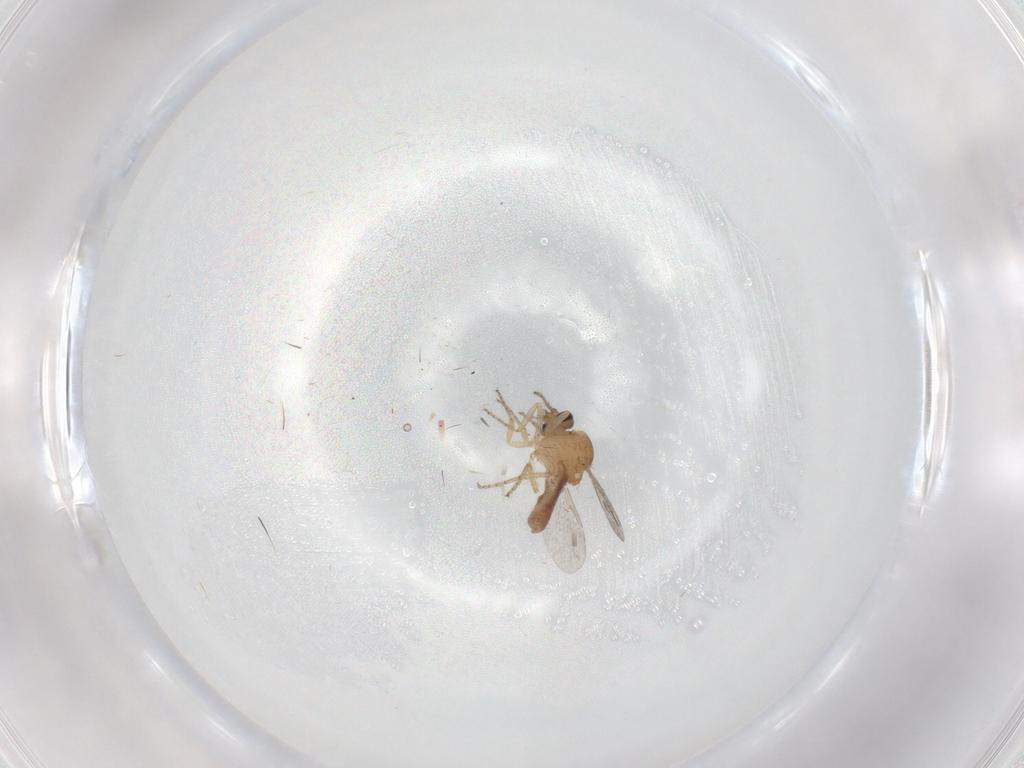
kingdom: Animalia
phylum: Arthropoda
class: Insecta
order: Diptera
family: Ceratopogonidae
